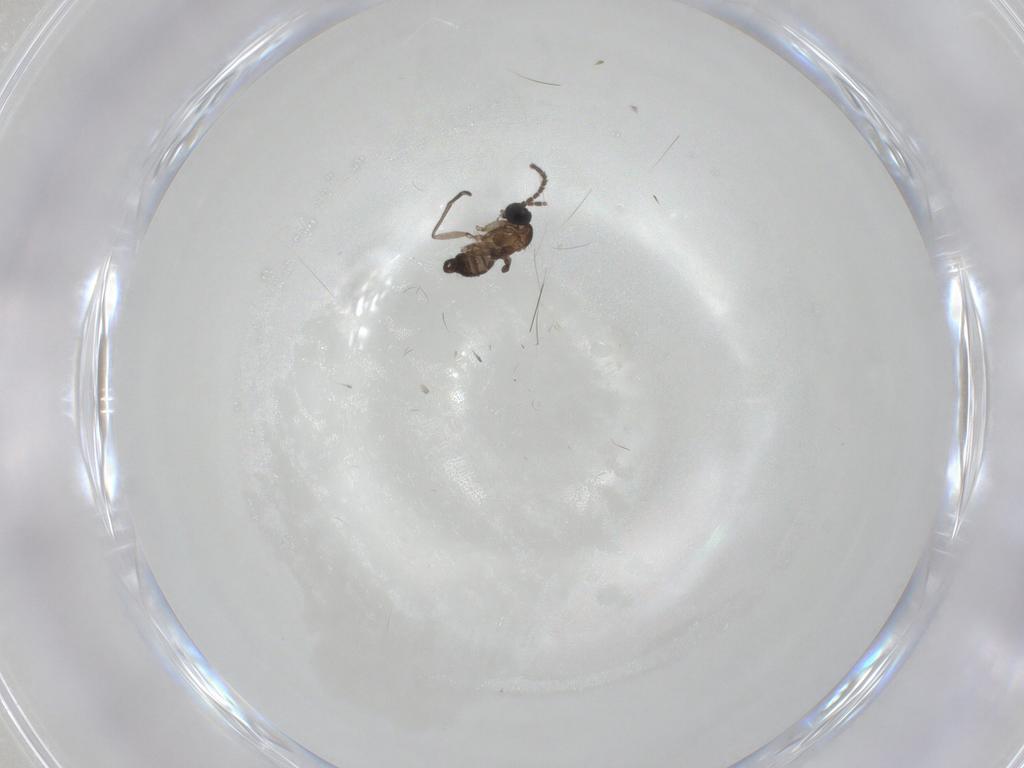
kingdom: Animalia
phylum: Arthropoda
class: Insecta
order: Diptera
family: Sciaridae
